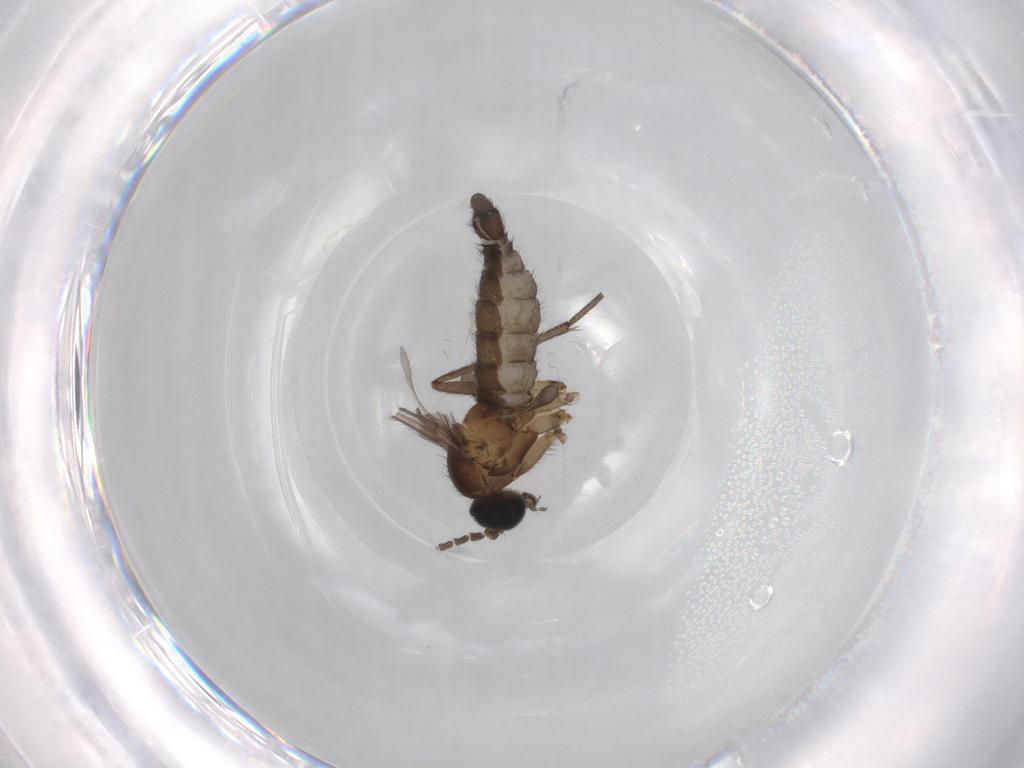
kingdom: Animalia
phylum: Arthropoda
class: Insecta
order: Diptera
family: Sciaridae
